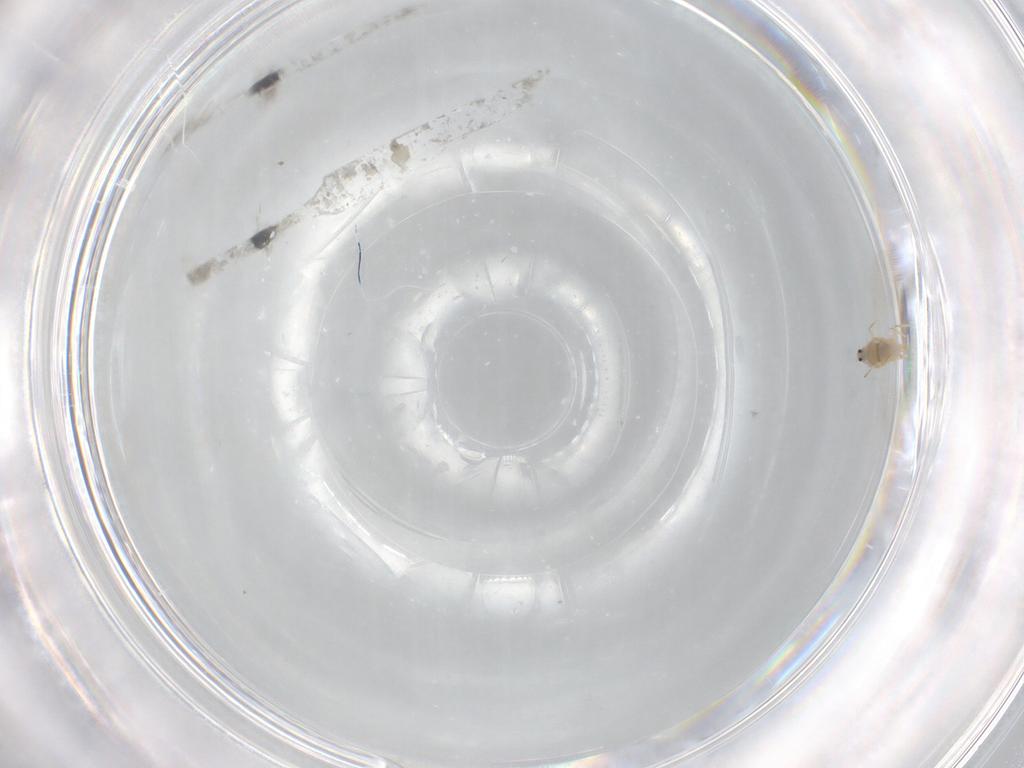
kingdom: Animalia
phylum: Arthropoda
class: Insecta
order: Hemiptera
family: Diaspididae
